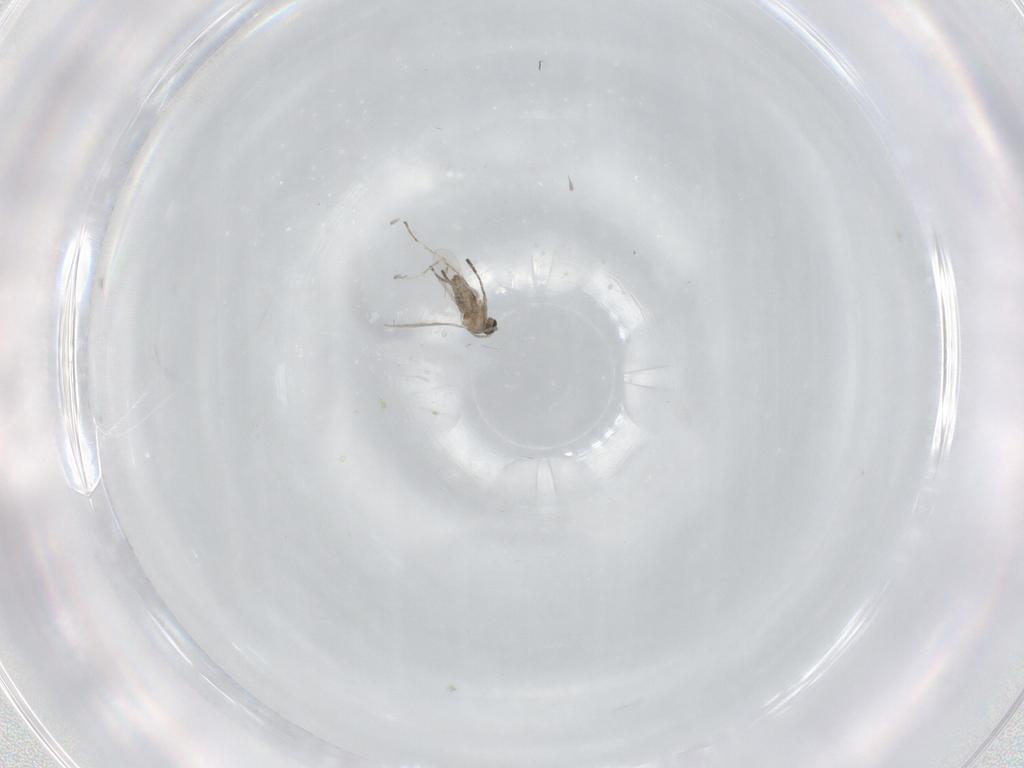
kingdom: Animalia
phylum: Arthropoda
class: Insecta
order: Diptera
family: Cecidomyiidae
